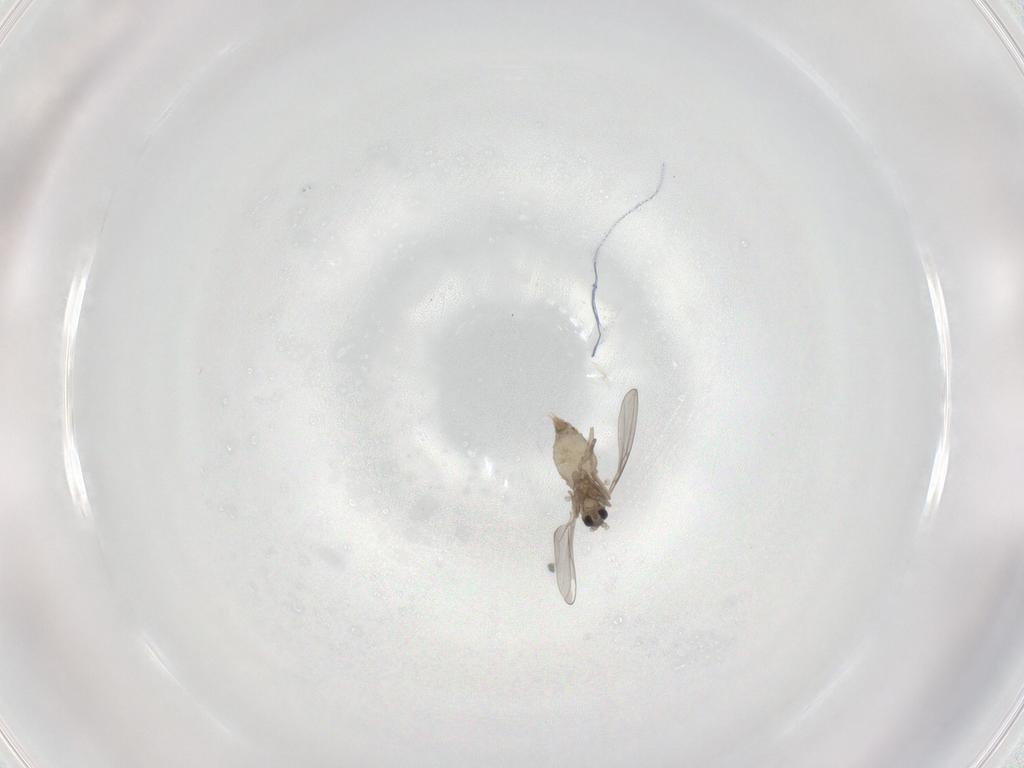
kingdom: Animalia
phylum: Arthropoda
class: Insecta
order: Diptera
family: Cecidomyiidae
